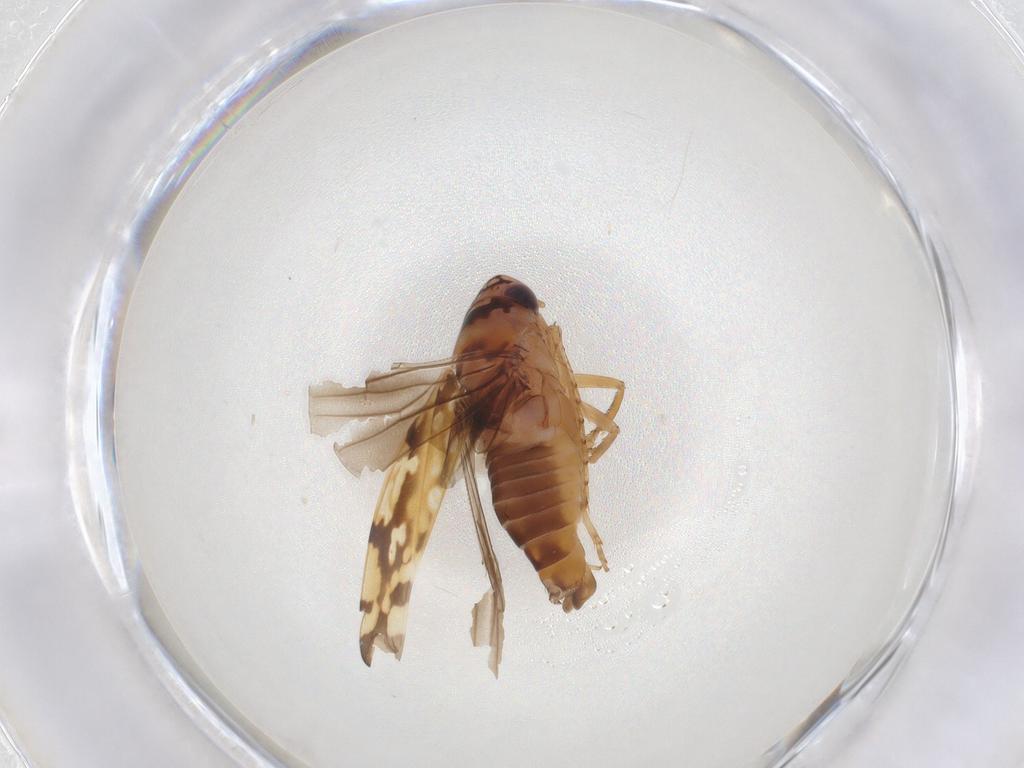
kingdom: Animalia
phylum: Arthropoda
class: Insecta
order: Hemiptera
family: Cicadellidae
